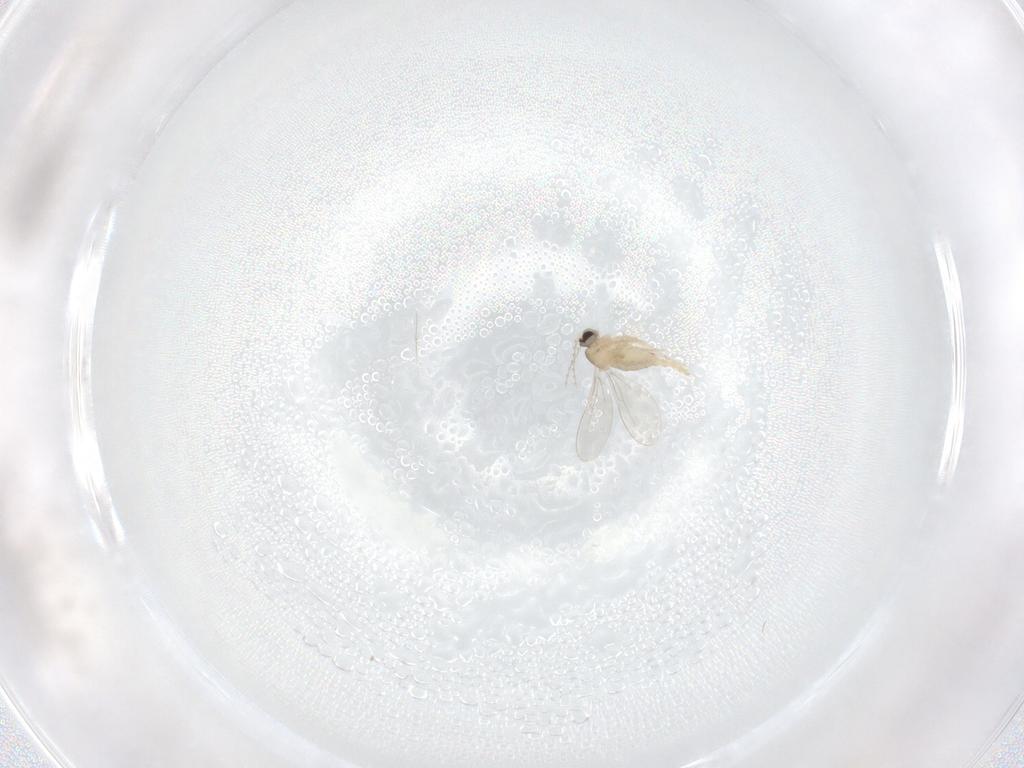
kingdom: Animalia
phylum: Arthropoda
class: Insecta
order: Diptera
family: Cecidomyiidae
